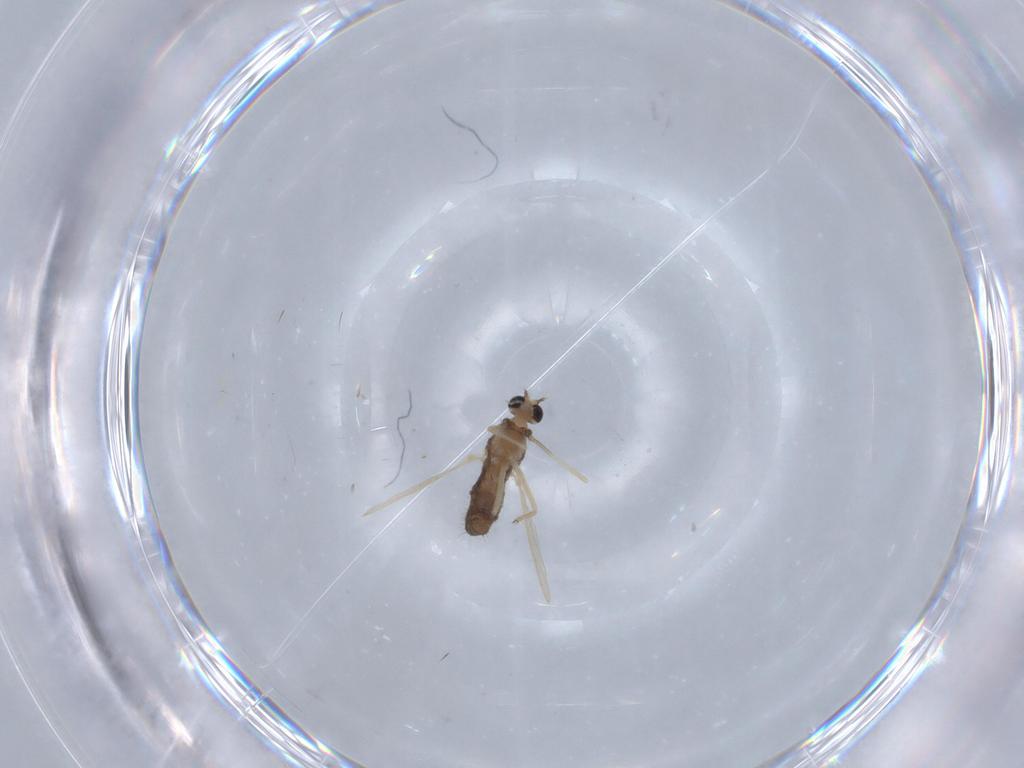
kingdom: Animalia
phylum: Arthropoda
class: Insecta
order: Diptera
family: Chironomidae
